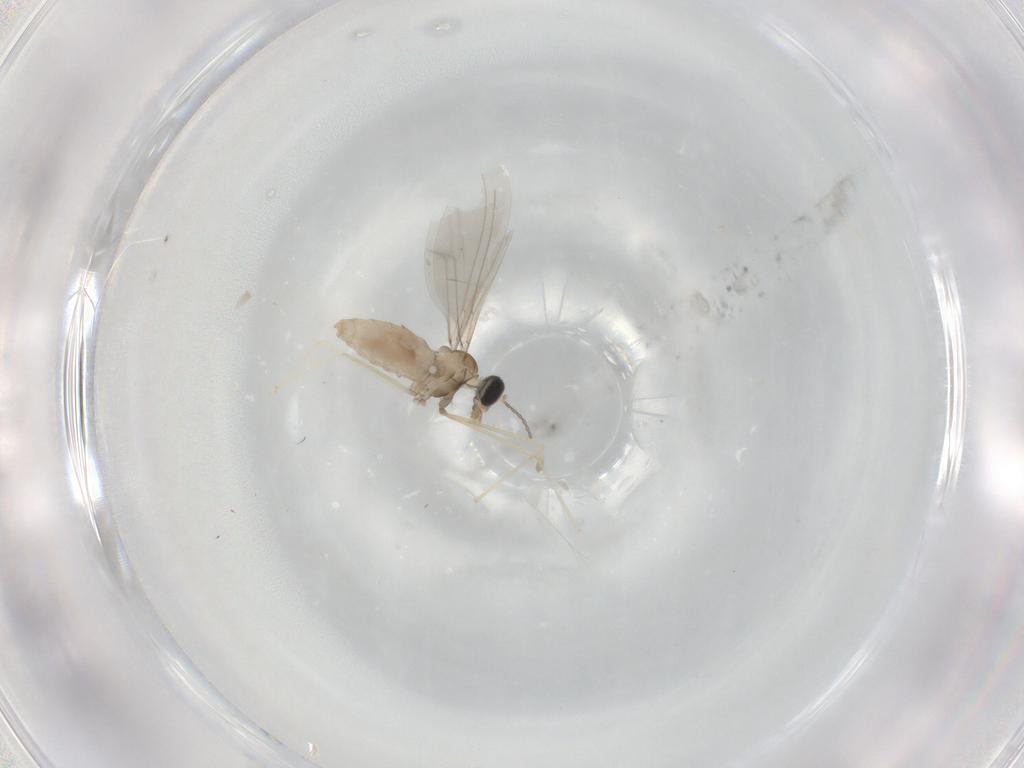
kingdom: Animalia
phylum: Arthropoda
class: Insecta
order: Diptera
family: Cecidomyiidae
